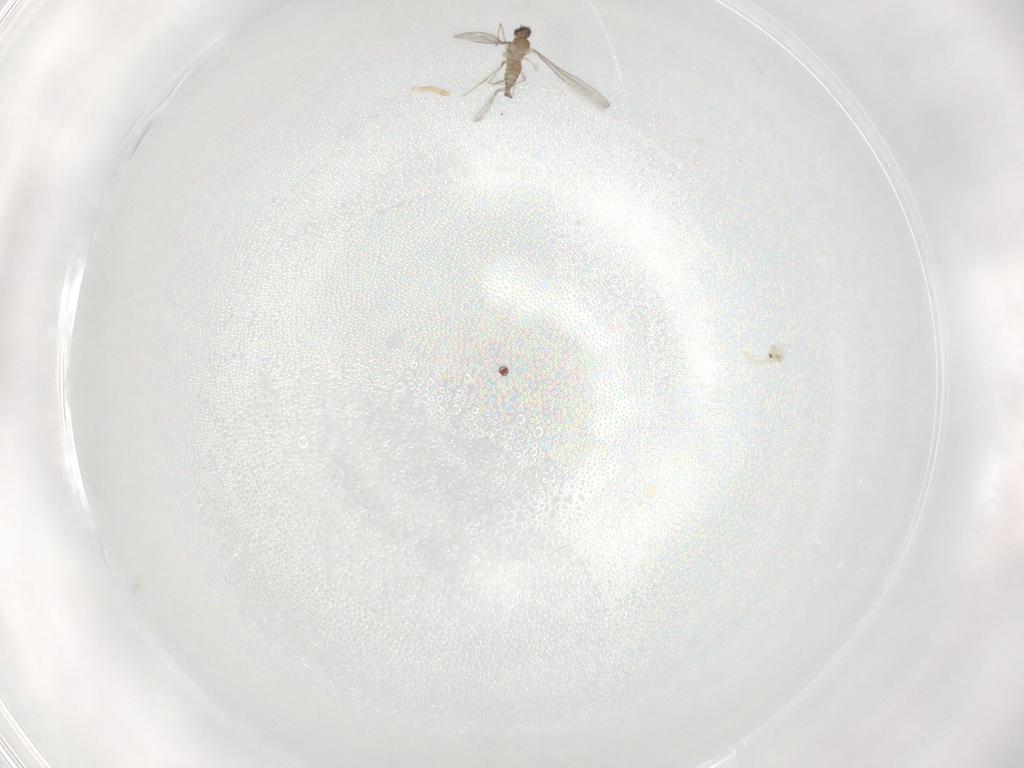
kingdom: Animalia
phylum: Arthropoda
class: Insecta
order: Diptera
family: Cecidomyiidae
